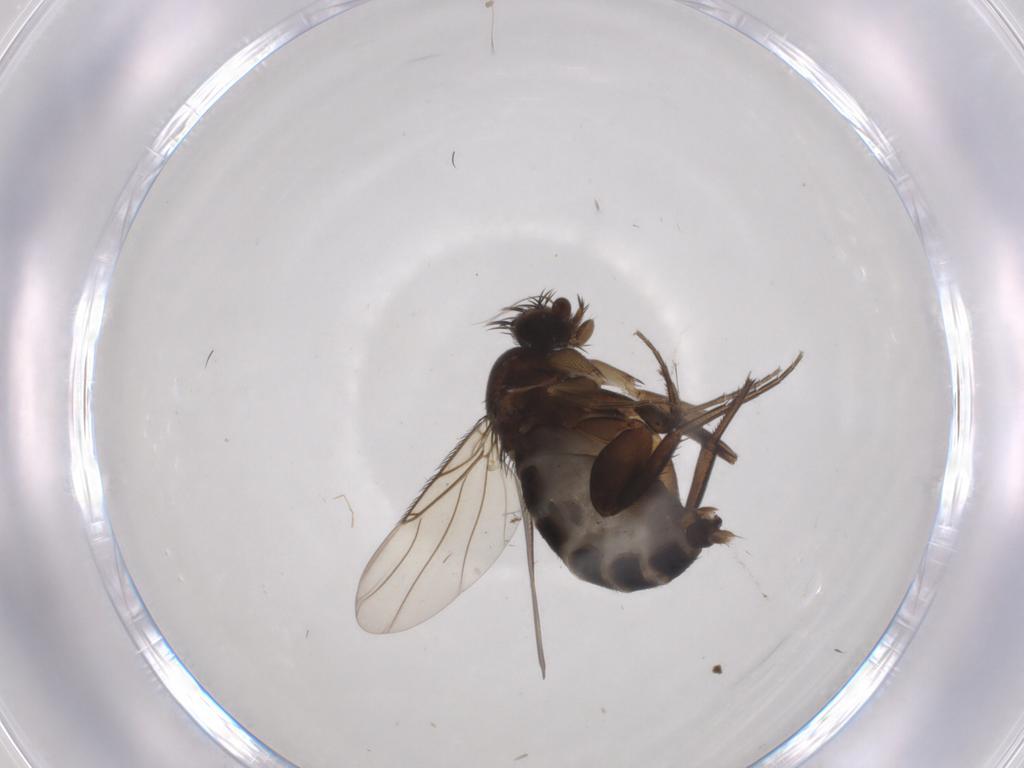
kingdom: Animalia
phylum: Arthropoda
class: Insecta
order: Diptera
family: Phoridae
